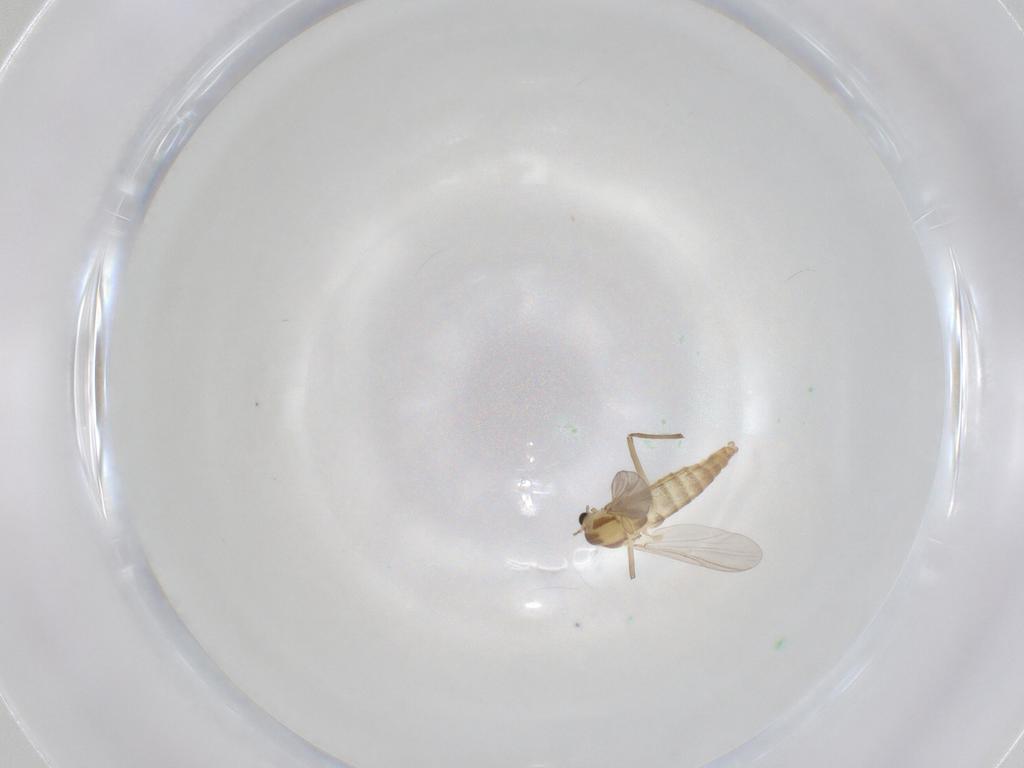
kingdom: Animalia
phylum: Arthropoda
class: Insecta
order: Diptera
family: Chironomidae
